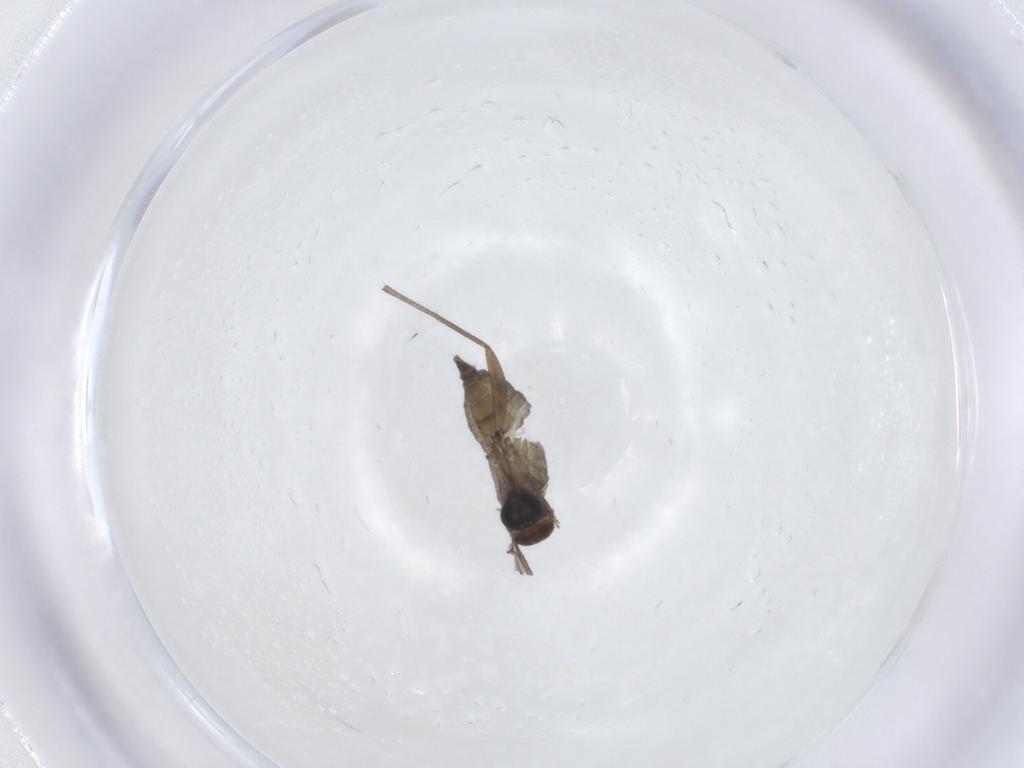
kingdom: Animalia
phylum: Arthropoda
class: Insecta
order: Diptera
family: Sciaridae
